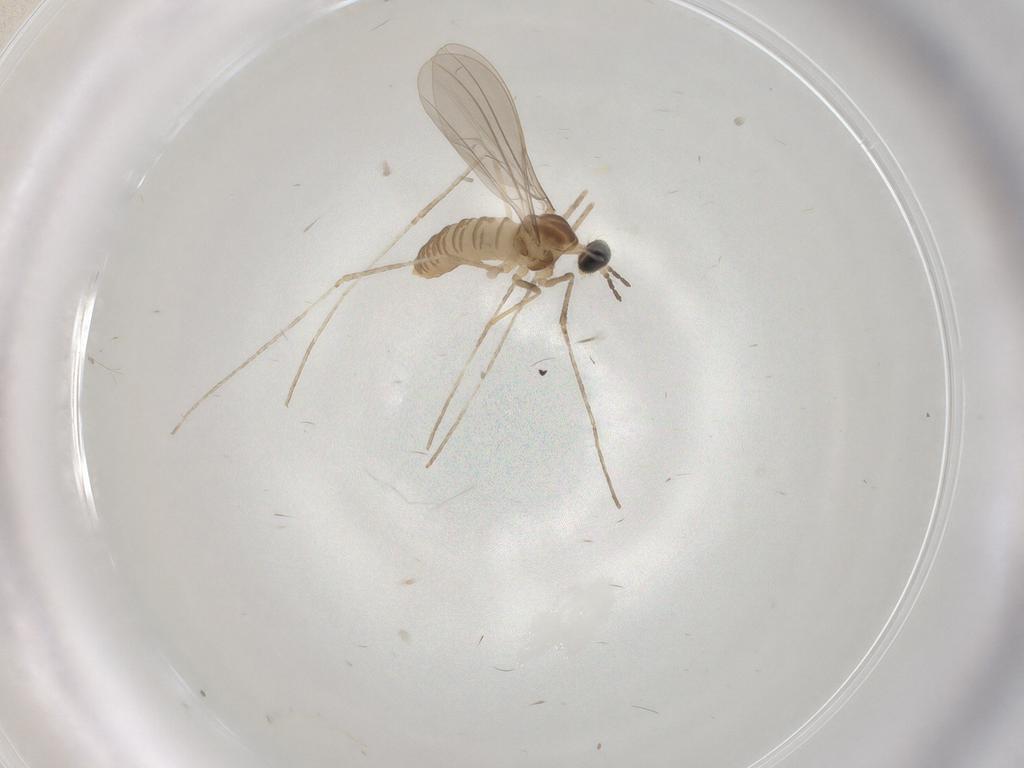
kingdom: Animalia
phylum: Arthropoda
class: Insecta
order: Diptera
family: Cecidomyiidae
